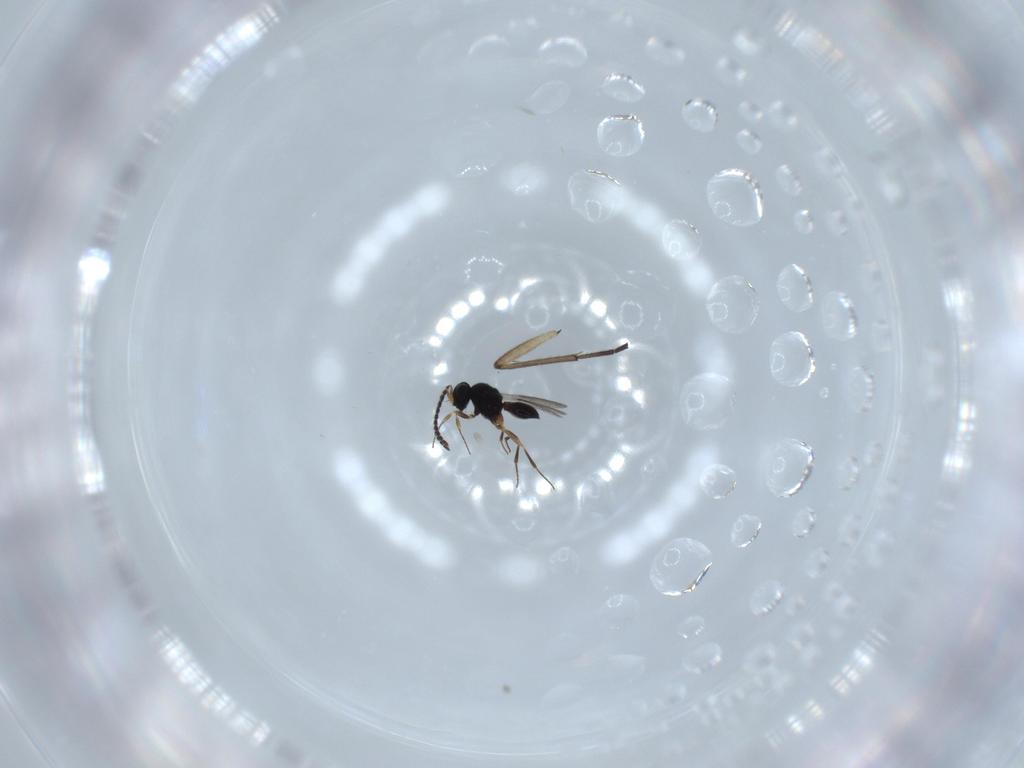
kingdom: Animalia
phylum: Arthropoda
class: Insecta
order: Hymenoptera
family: Scelionidae
